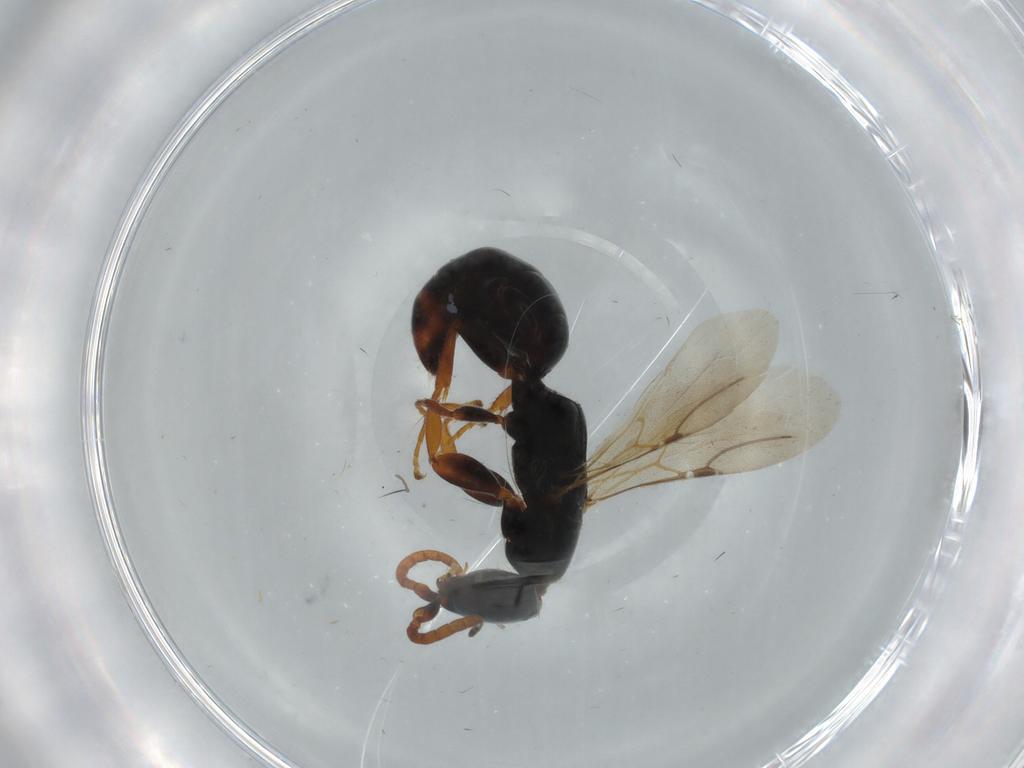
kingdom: Animalia
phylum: Arthropoda
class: Insecta
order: Hymenoptera
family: Bethylidae
